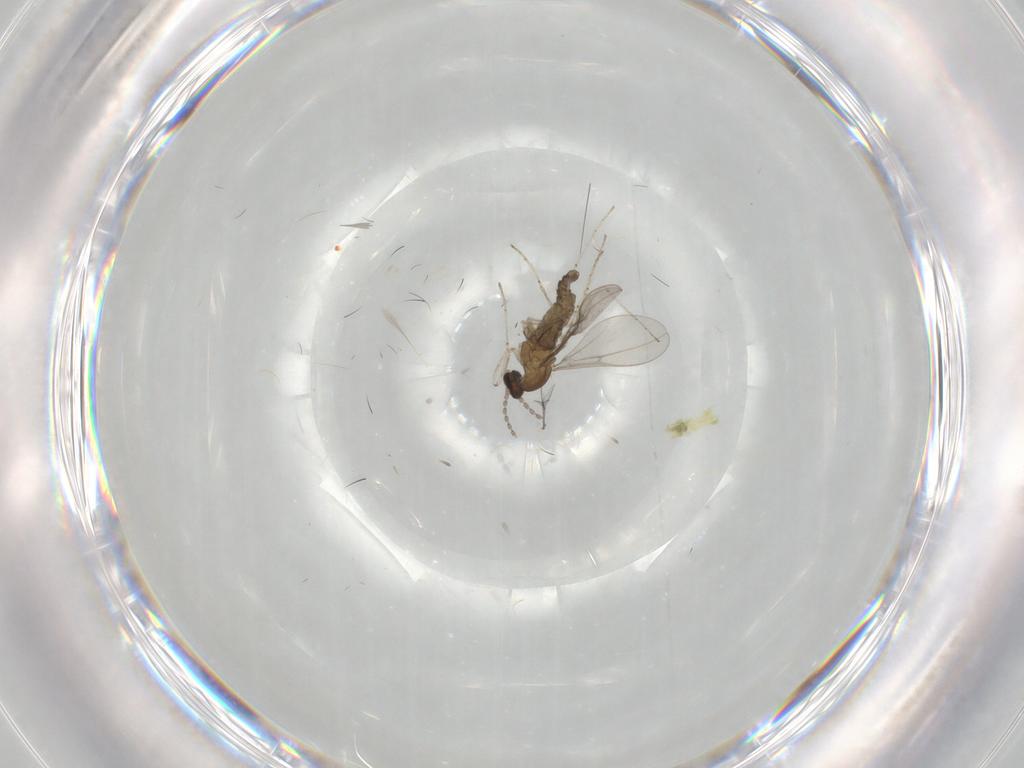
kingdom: Animalia
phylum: Arthropoda
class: Insecta
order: Diptera
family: Cecidomyiidae
